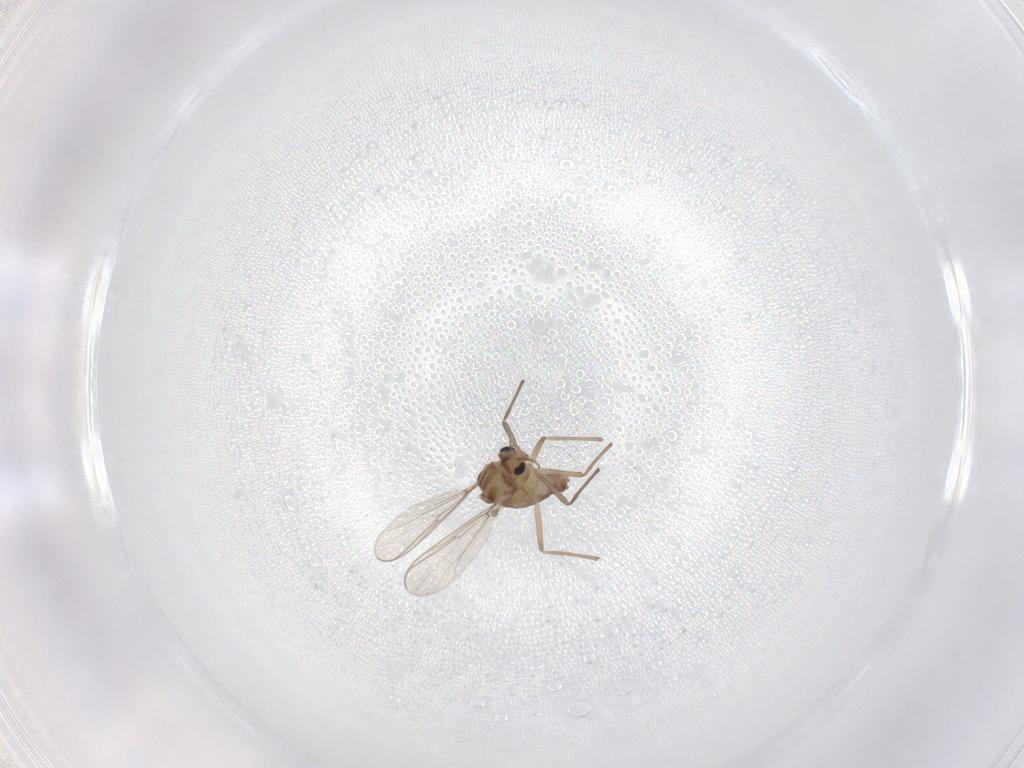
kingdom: Animalia
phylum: Arthropoda
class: Insecta
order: Diptera
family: Chironomidae
